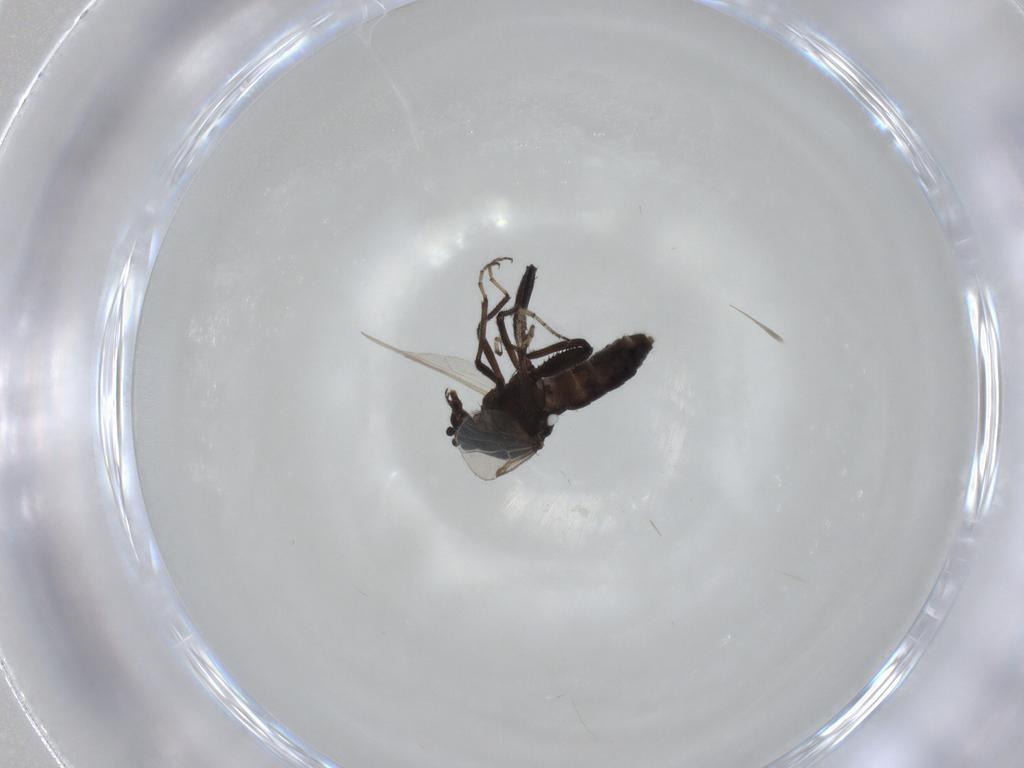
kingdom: Animalia
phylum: Arthropoda
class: Insecta
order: Diptera
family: Ceratopogonidae
